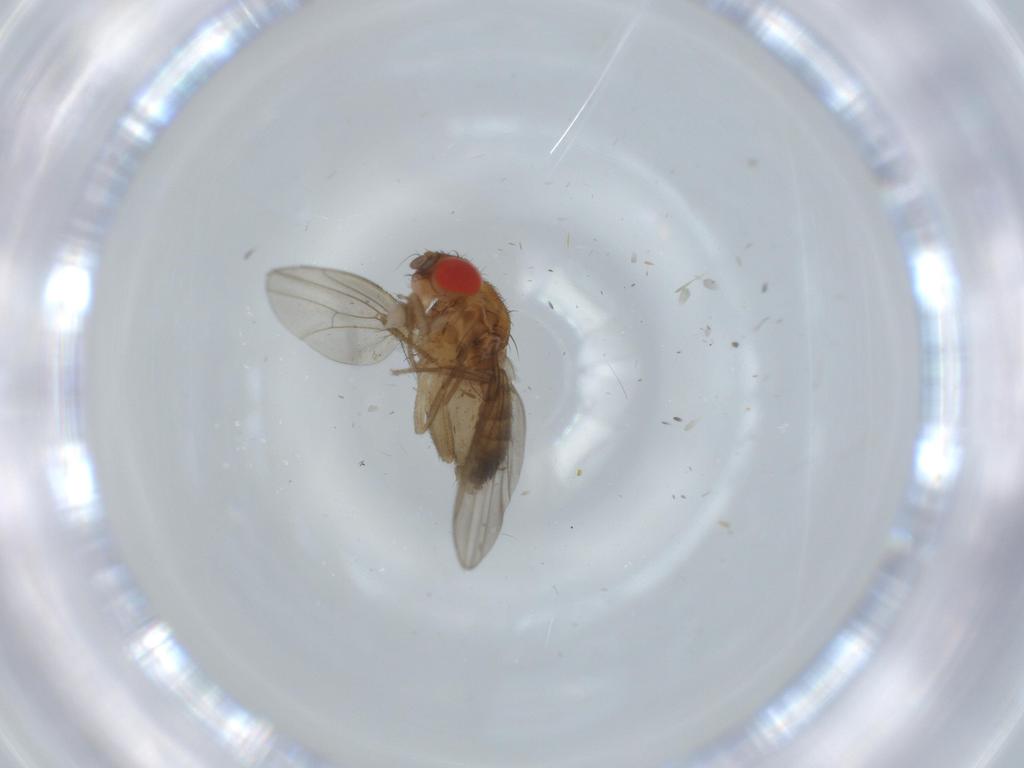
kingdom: Animalia
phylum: Arthropoda
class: Insecta
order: Diptera
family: Drosophilidae
